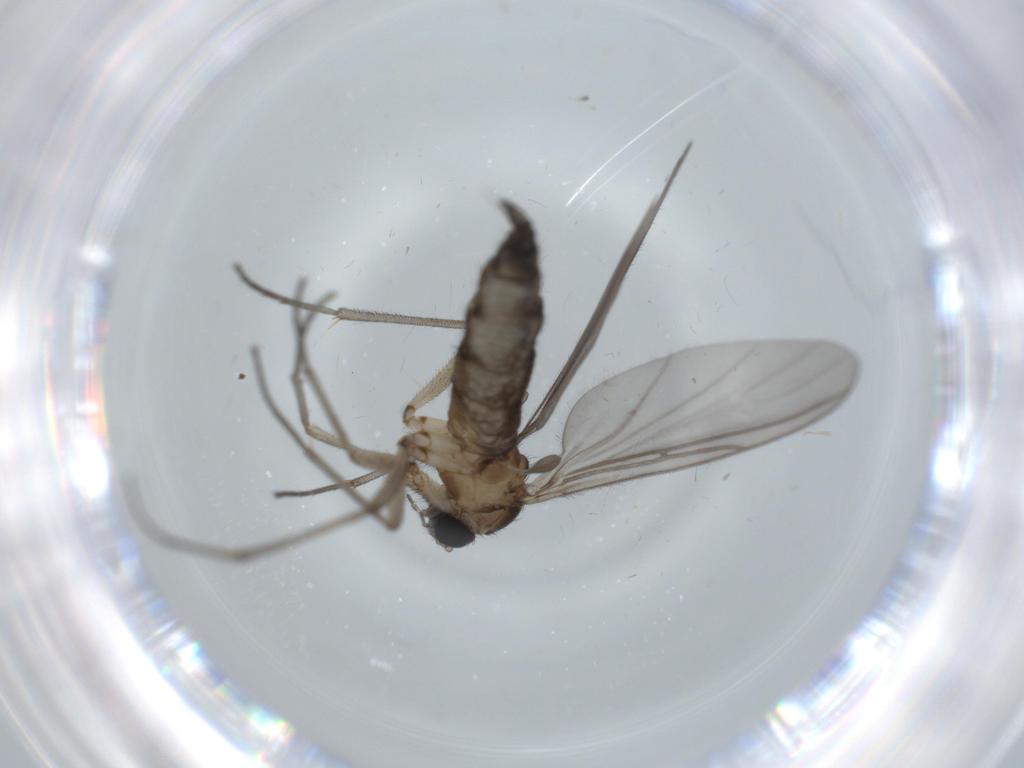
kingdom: Animalia
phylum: Arthropoda
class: Insecta
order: Diptera
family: Sciaridae
